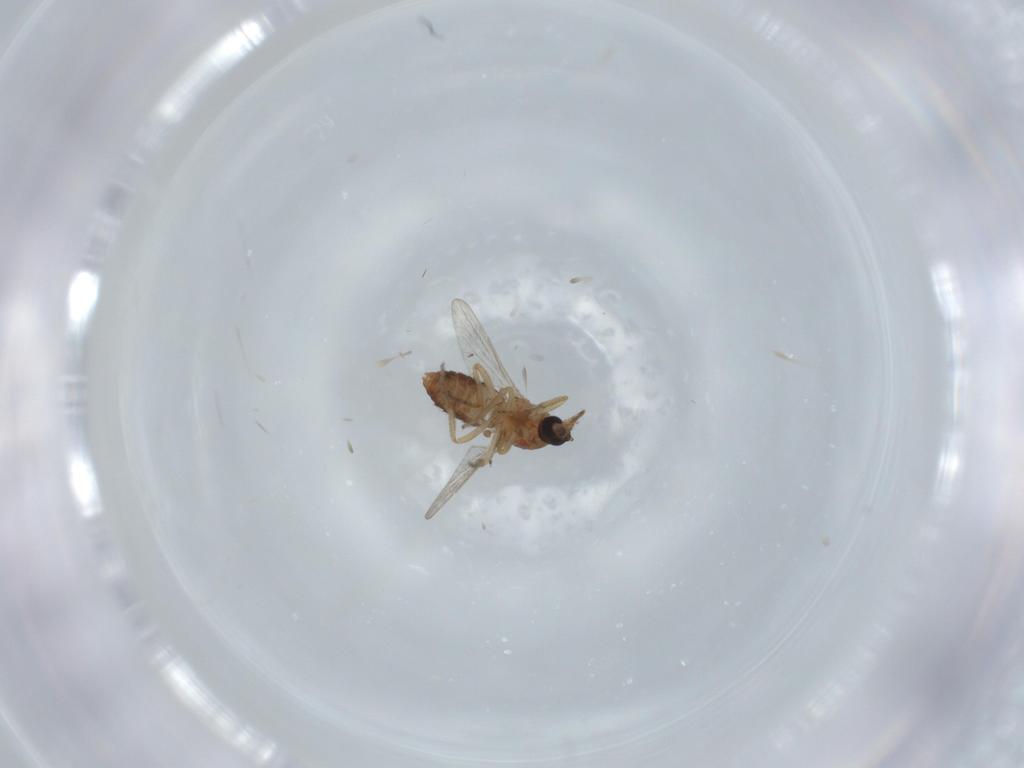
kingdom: Animalia
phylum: Arthropoda
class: Insecta
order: Diptera
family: Ceratopogonidae
